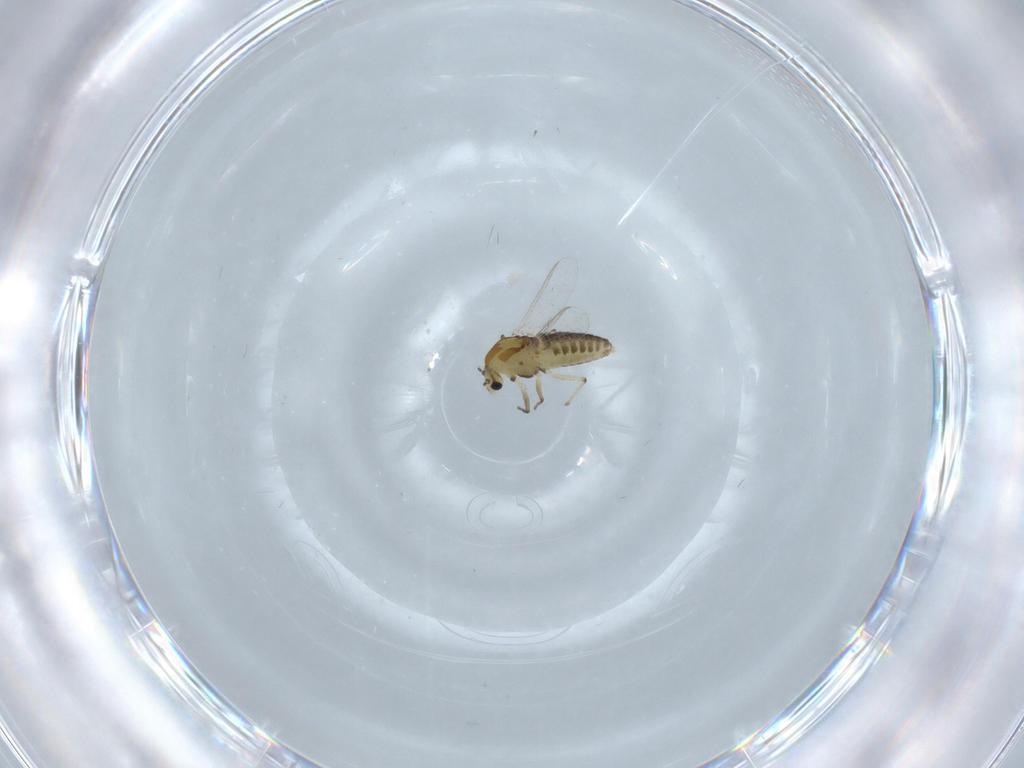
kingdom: Animalia
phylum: Arthropoda
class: Insecta
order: Diptera
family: Chironomidae
